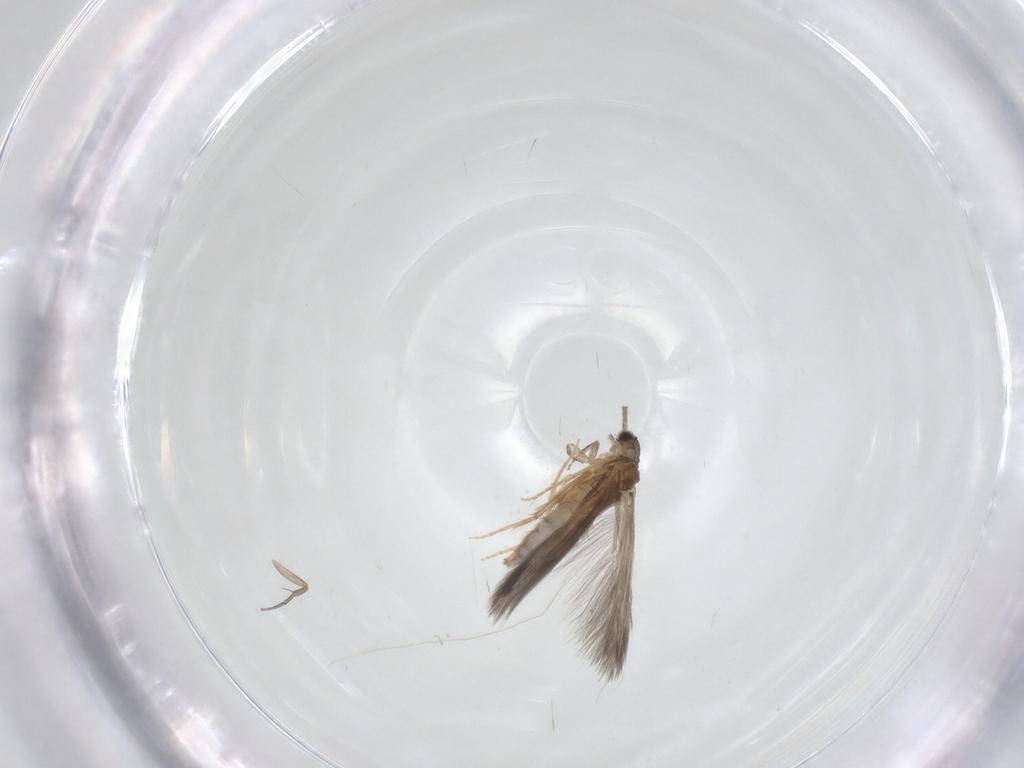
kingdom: Animalia
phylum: Arthropoda
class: Insecta
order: Trichoptera
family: Hydroptilidae
